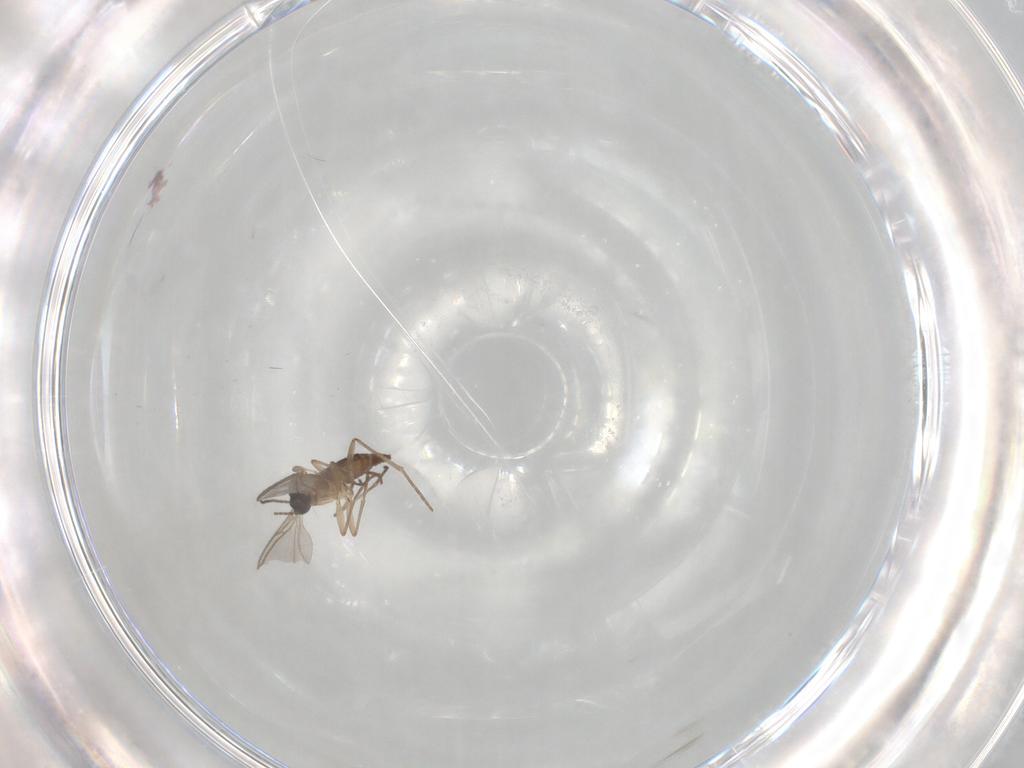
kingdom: Animalia
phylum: Arthropoda
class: Insecta
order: Diptera
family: Sciaridae
